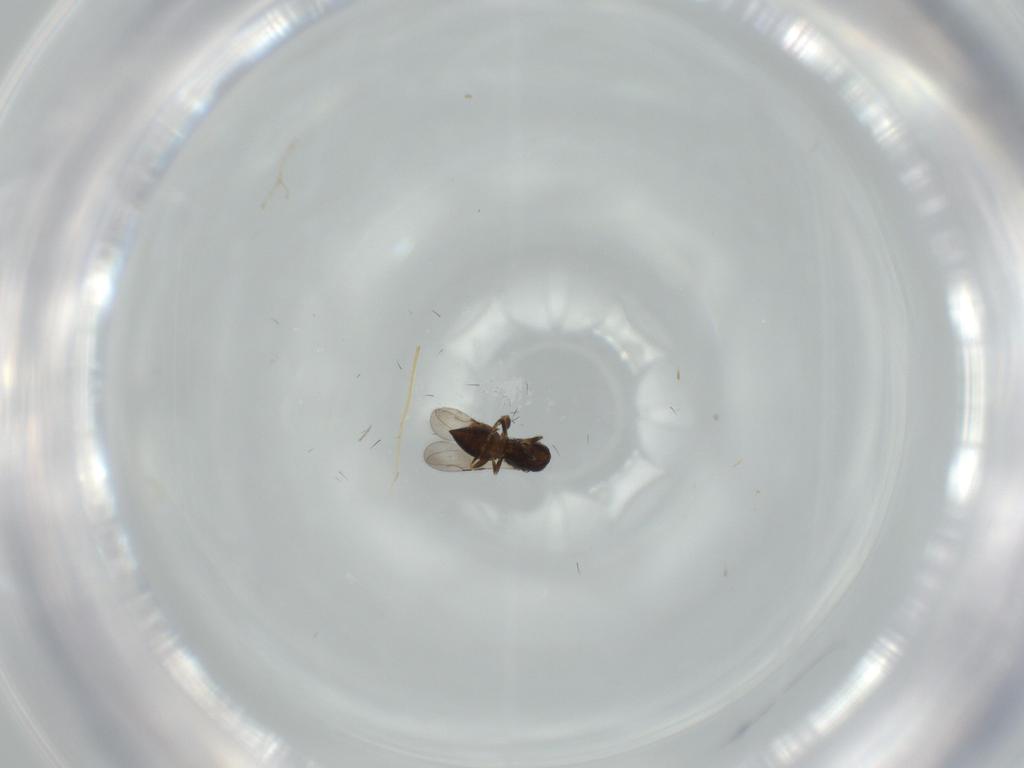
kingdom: Animalia
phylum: Arthropoda
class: Insecta
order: Hymenoptera
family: Ceraphronidae
